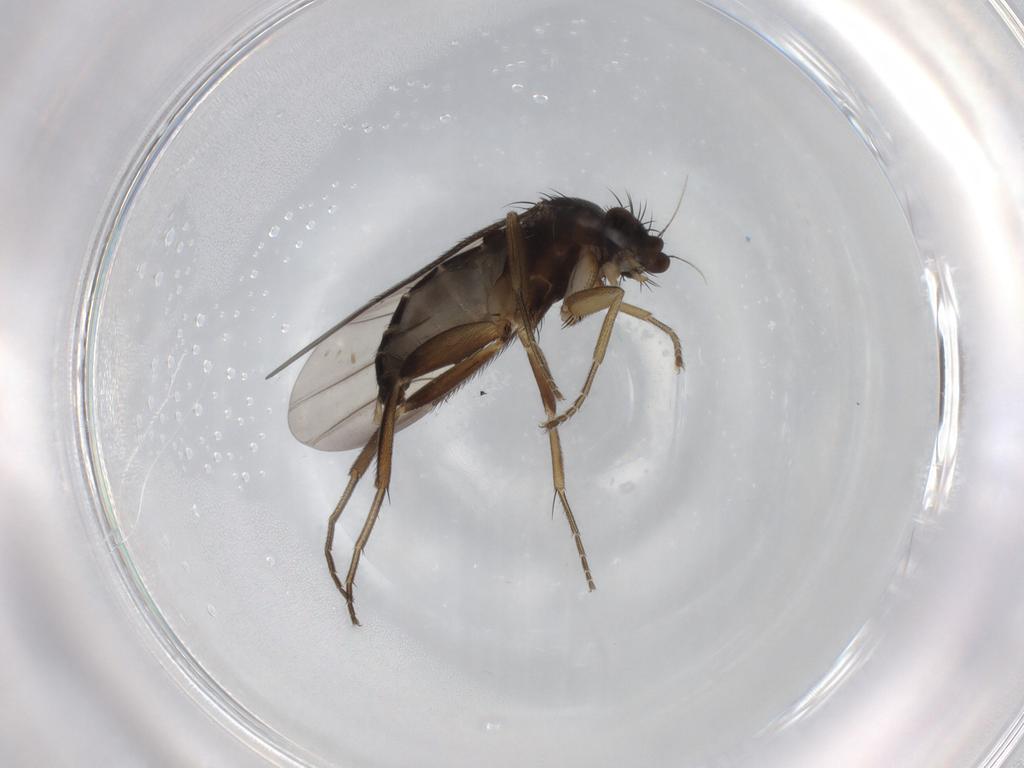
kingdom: Animalia
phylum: Arthropoda
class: Insecta
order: Diptera
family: Phoridae
